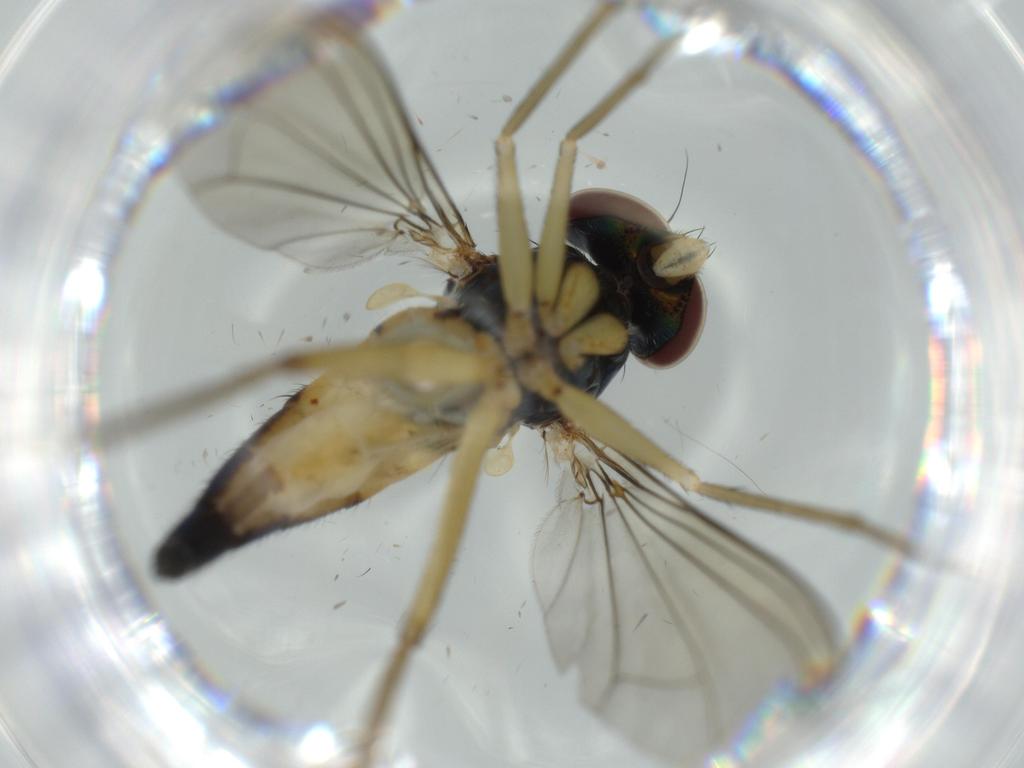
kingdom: Animalia
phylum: Arthropoda
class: Insecta
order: Diptera
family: Dolichopodidae
